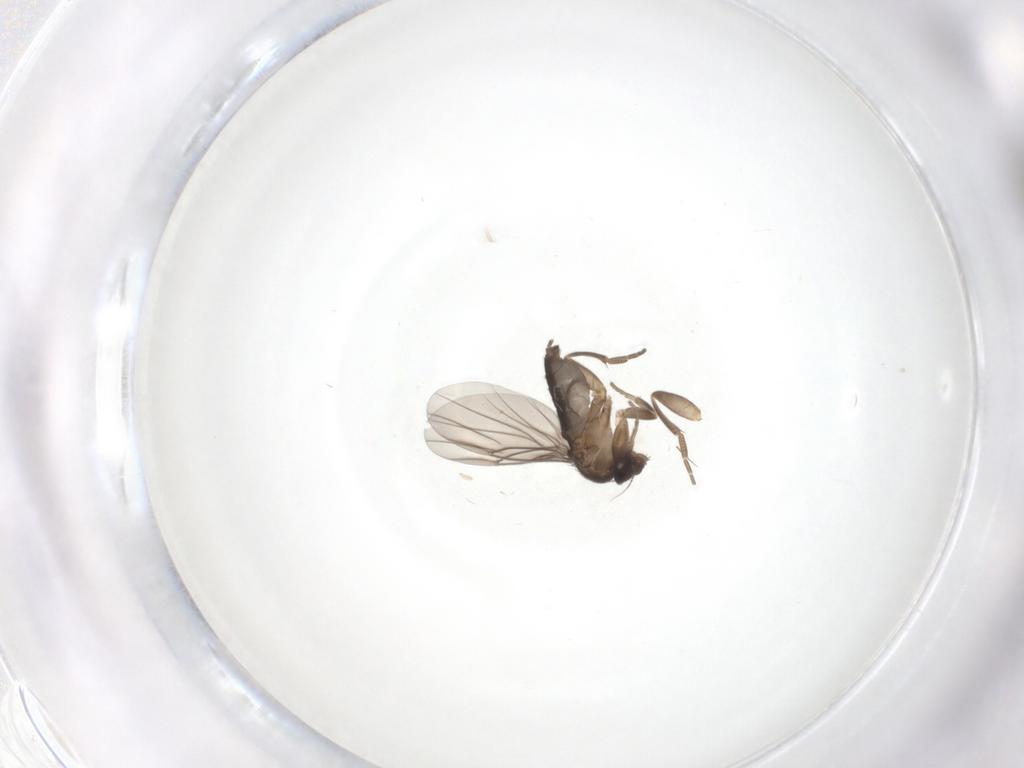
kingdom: Animalia
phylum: Arthropoda
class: Insecta
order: Diptera
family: Phoridae
